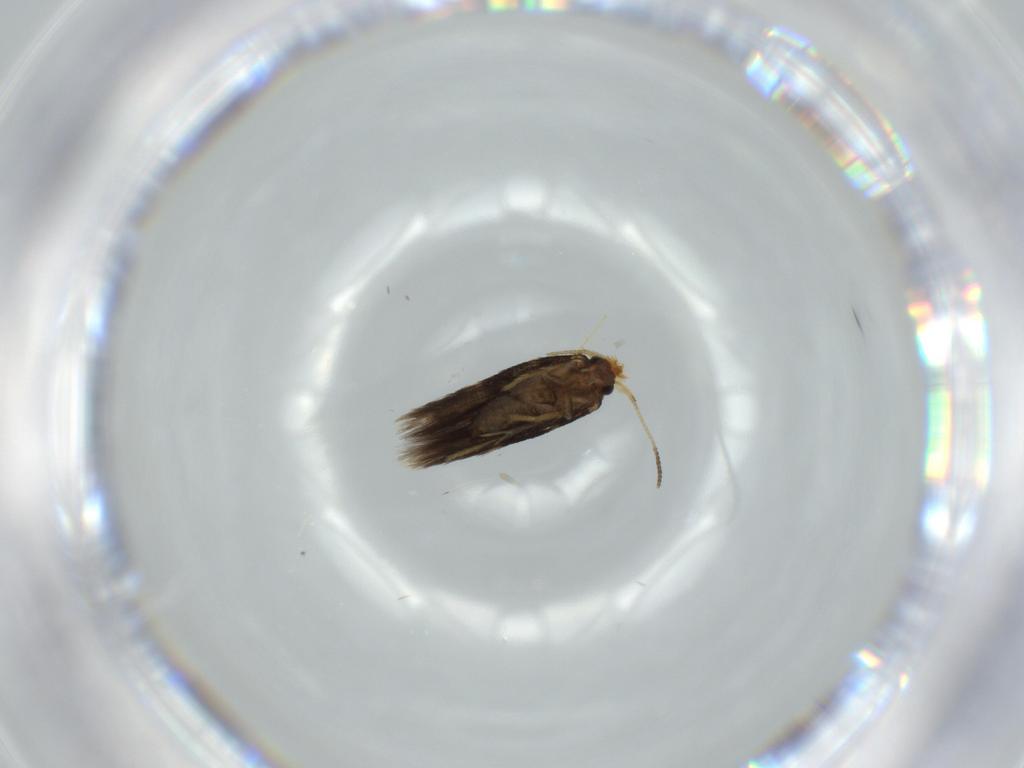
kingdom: Animalia
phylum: Arthropoda
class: Insecta
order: Lepidoptera
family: Nepticulidae
